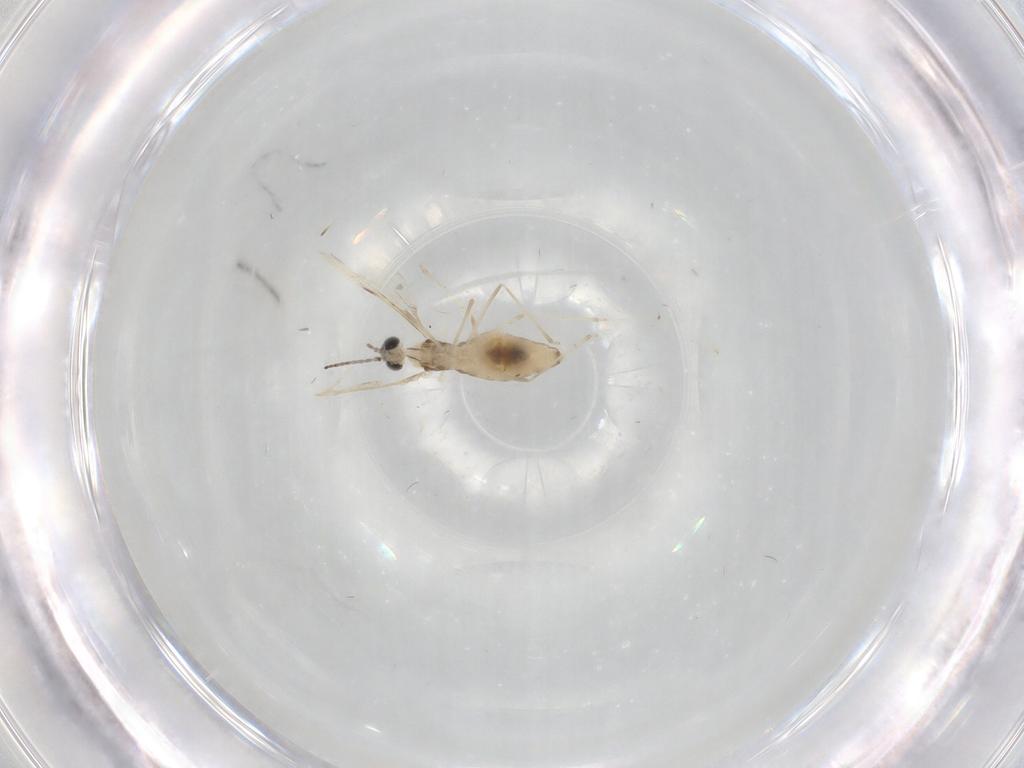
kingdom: Animalia
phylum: Arthropoda
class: Insecta
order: Diptera
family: Cecidomyiidae
